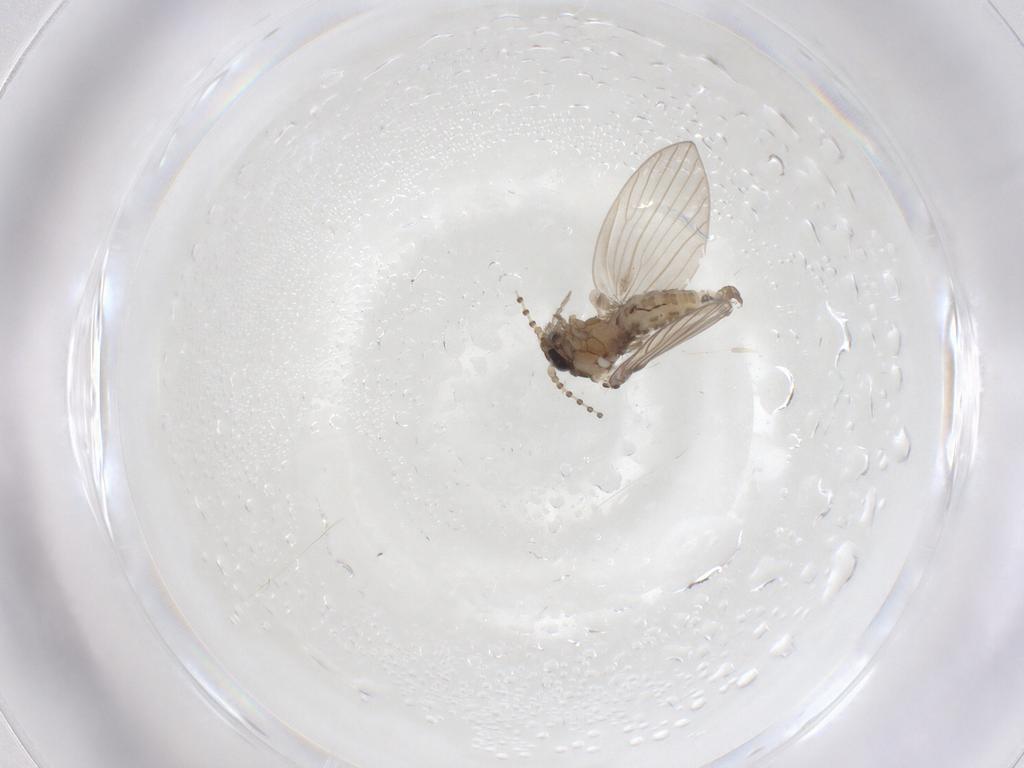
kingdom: Animalia
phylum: Arthropoda
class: Insecta
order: Diptera
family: Psychodidae
